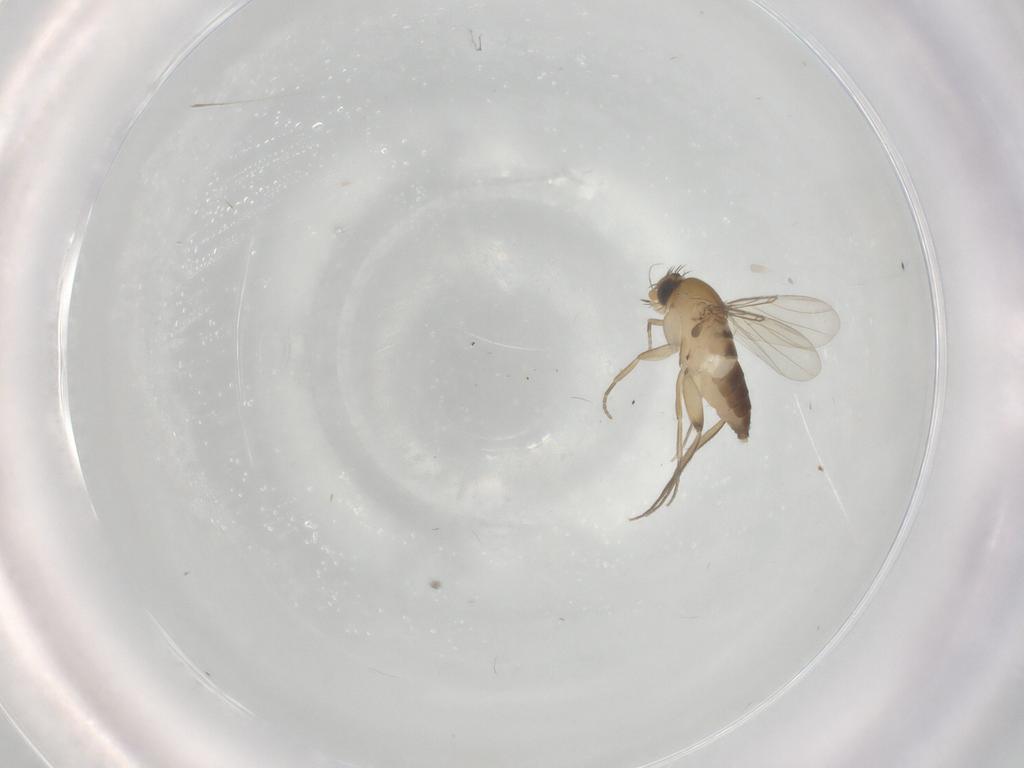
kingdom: Animalia
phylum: Arthropoda
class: Insecta
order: Diptera
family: Phoridae
